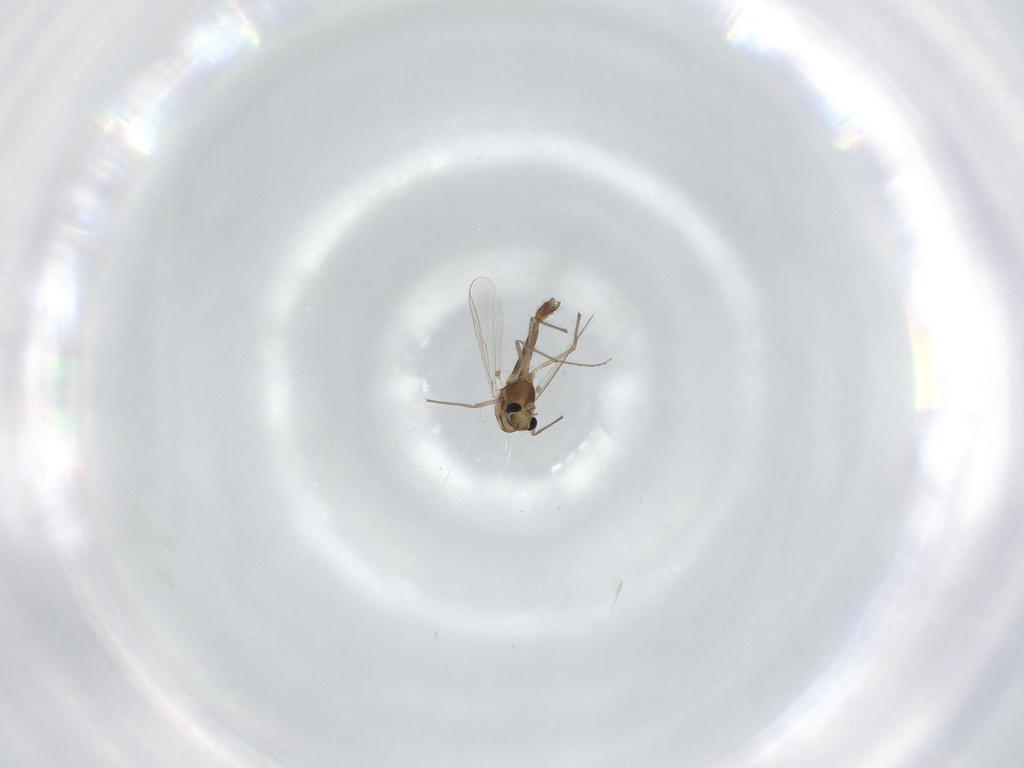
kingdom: Animalia
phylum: Arthropoda
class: Insecta
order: Diptera
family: Chironomidae
